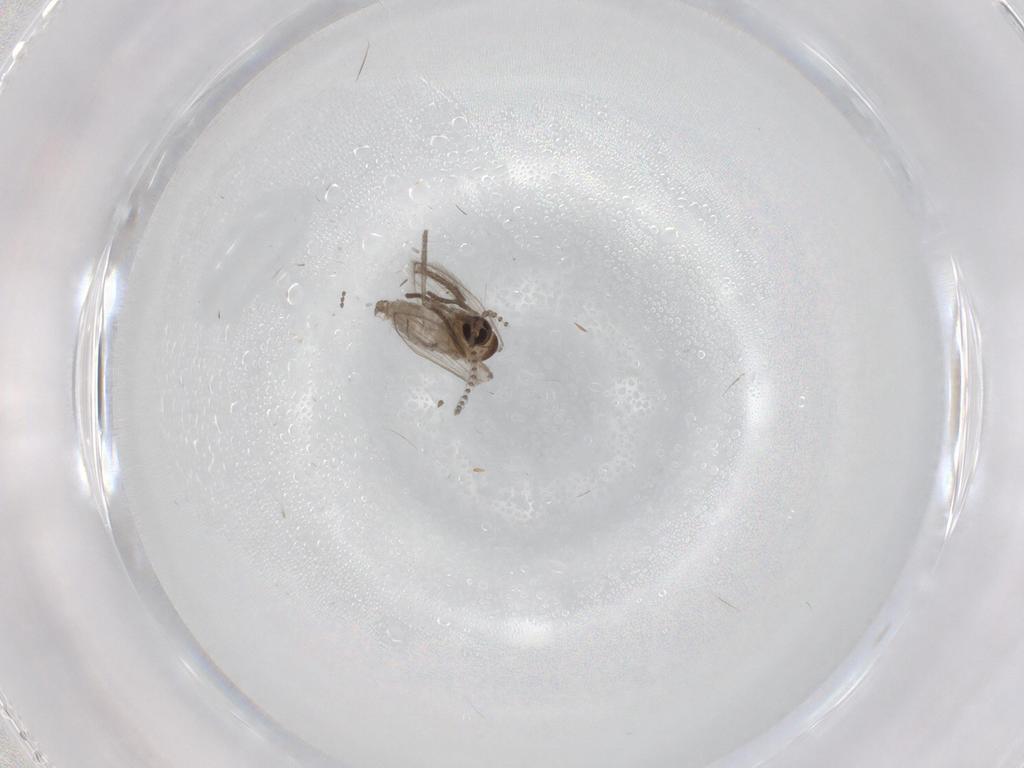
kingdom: Animalia
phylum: Arthropoda
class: Insecta
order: Diptera
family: Psychodidae
